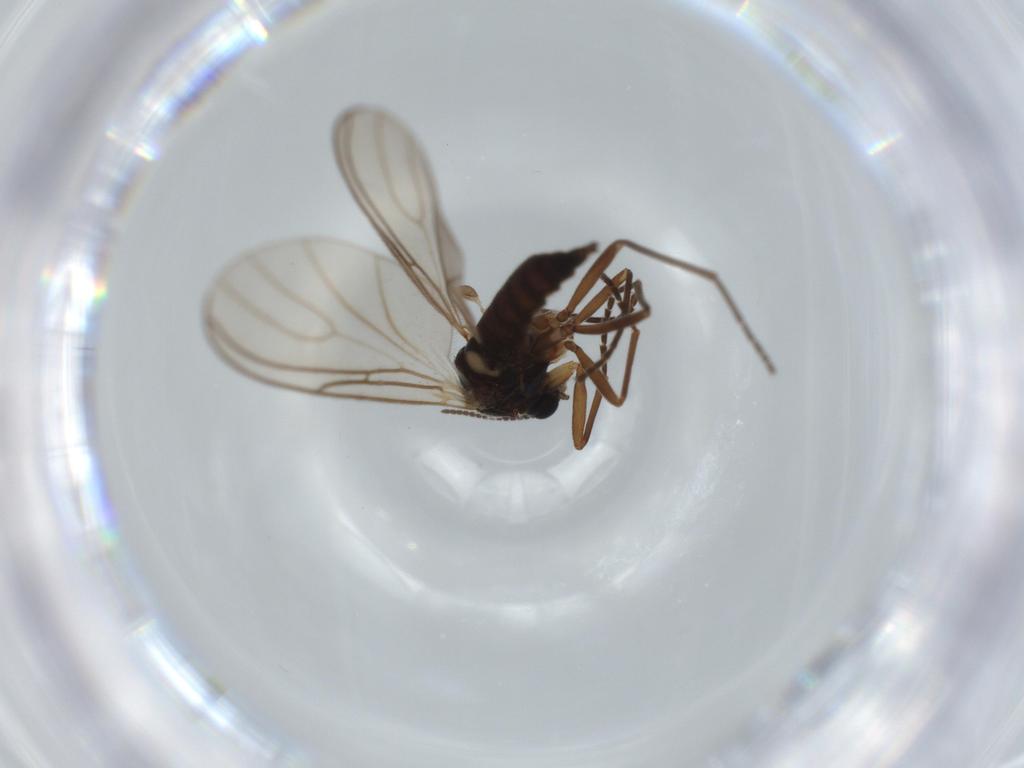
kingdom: Animalia
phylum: Arthropoda
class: Insecta
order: Diptera
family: Sciaridae
